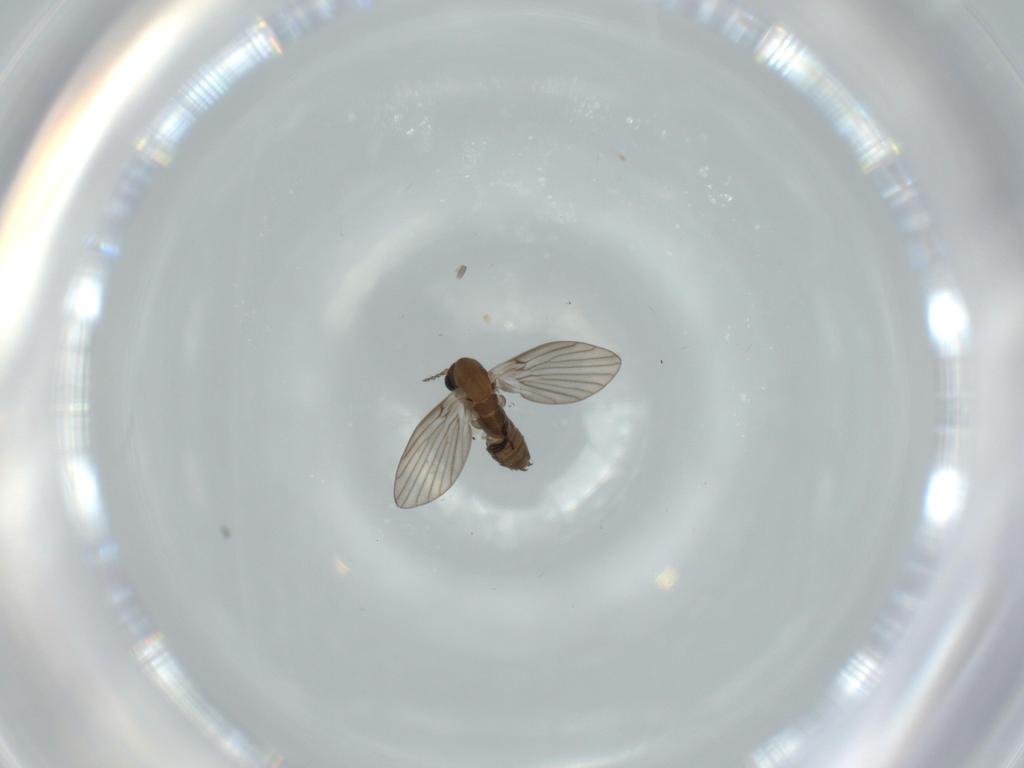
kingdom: Animalia
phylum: Arthropoda
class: Insecta
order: Diptera
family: Psychodidae
